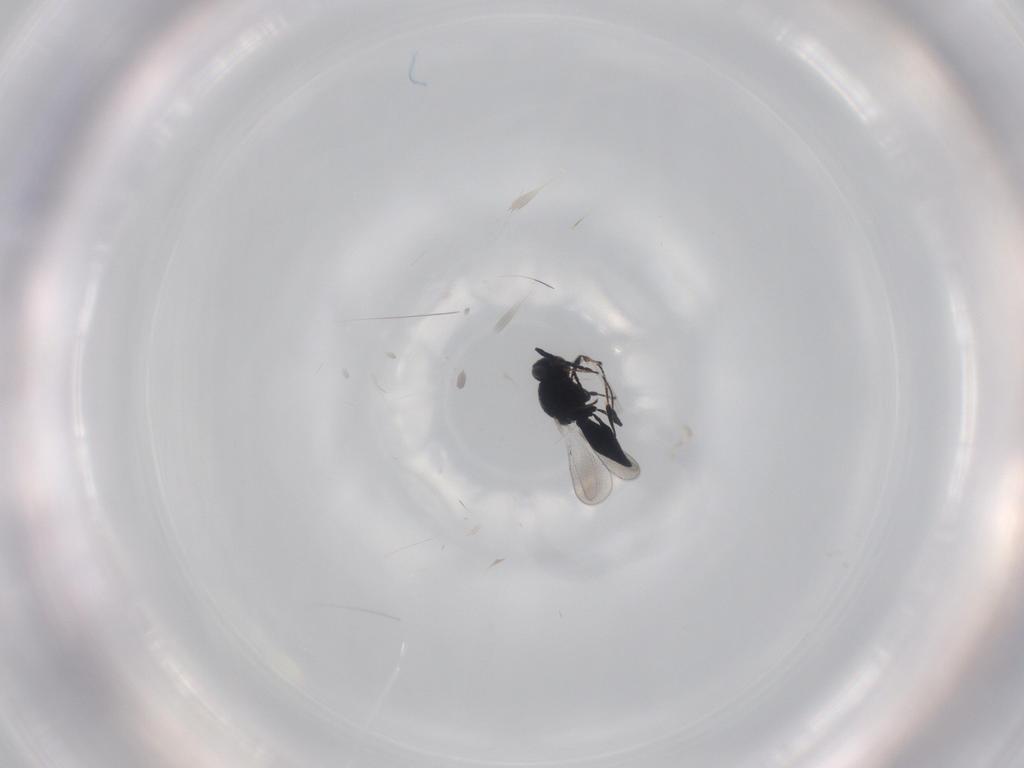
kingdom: Animalia
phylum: Arthropoda
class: Insecta
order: Hymenoptera
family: Platygastridae
